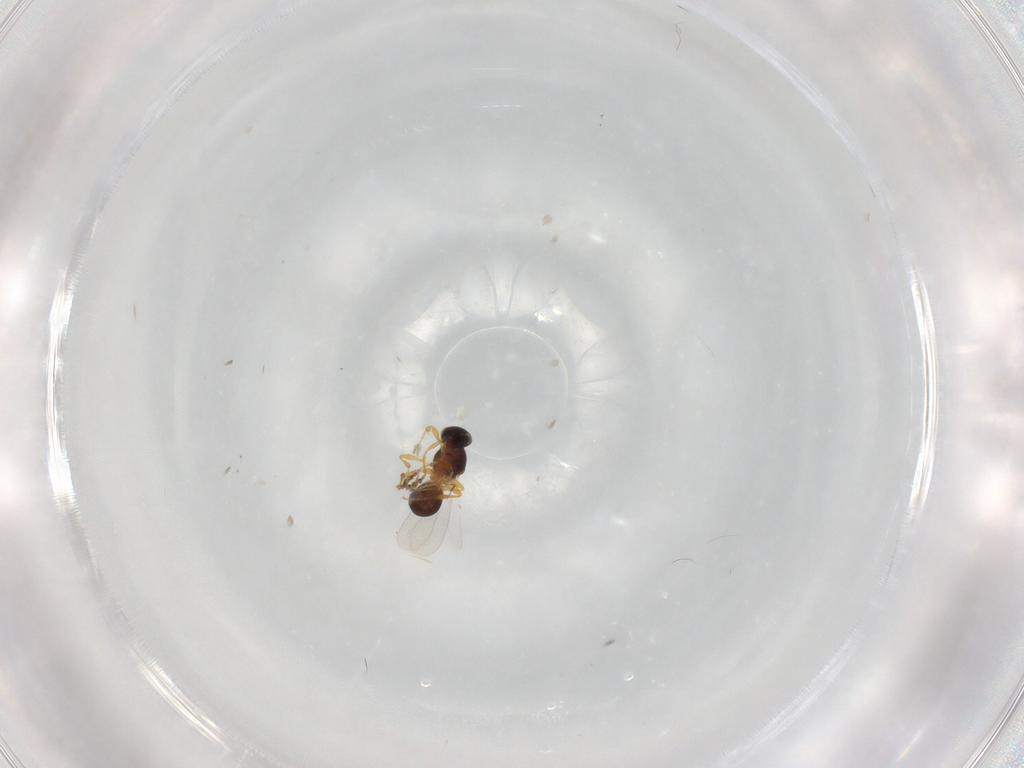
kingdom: Animalia
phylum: Arthropoda
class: Insecta
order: Hymenoptera
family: Platygastridae
